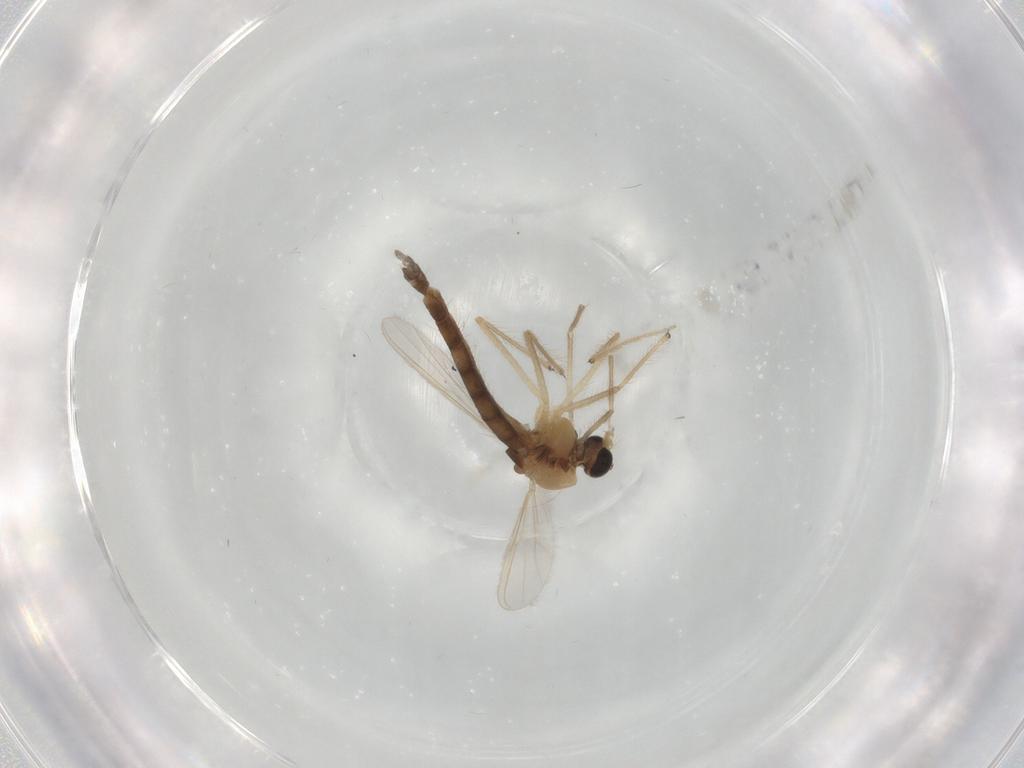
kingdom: Animalia
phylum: Arthropoda
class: Insecta
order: Diptera
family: Chironomidae
